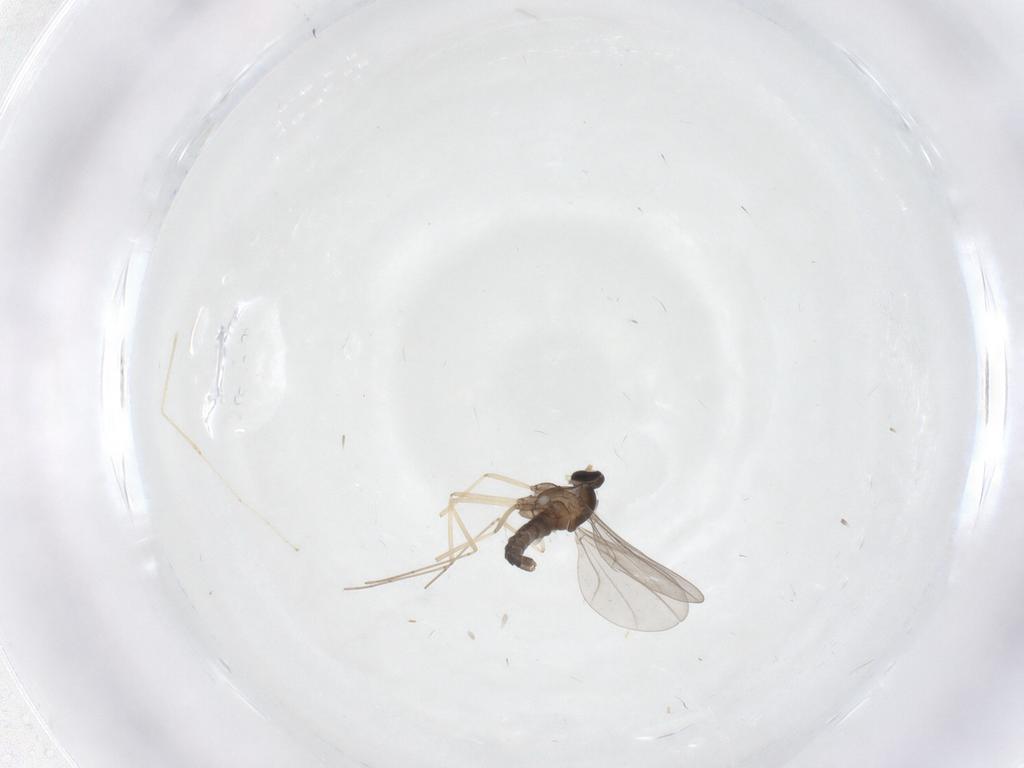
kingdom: Animalia
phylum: Arthropoda
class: Insecta
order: Diptera
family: Cecidomyiidae
